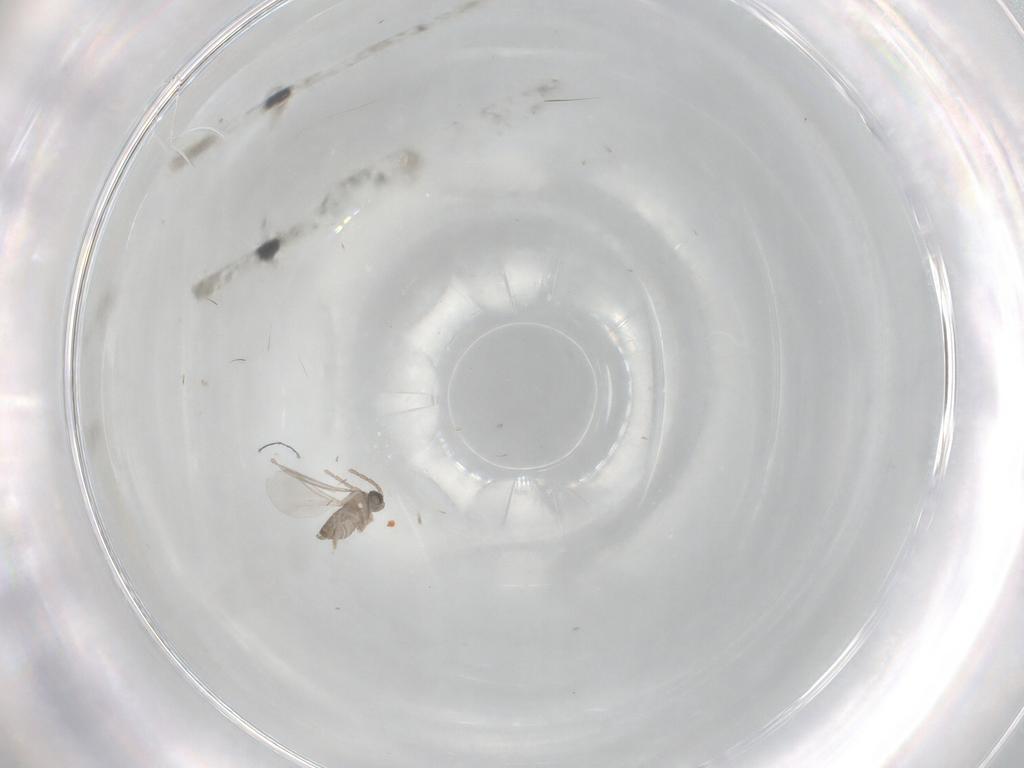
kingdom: Animalia
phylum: Arthropoda
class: Insecta
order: Diptera
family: Cecidomyiidae
